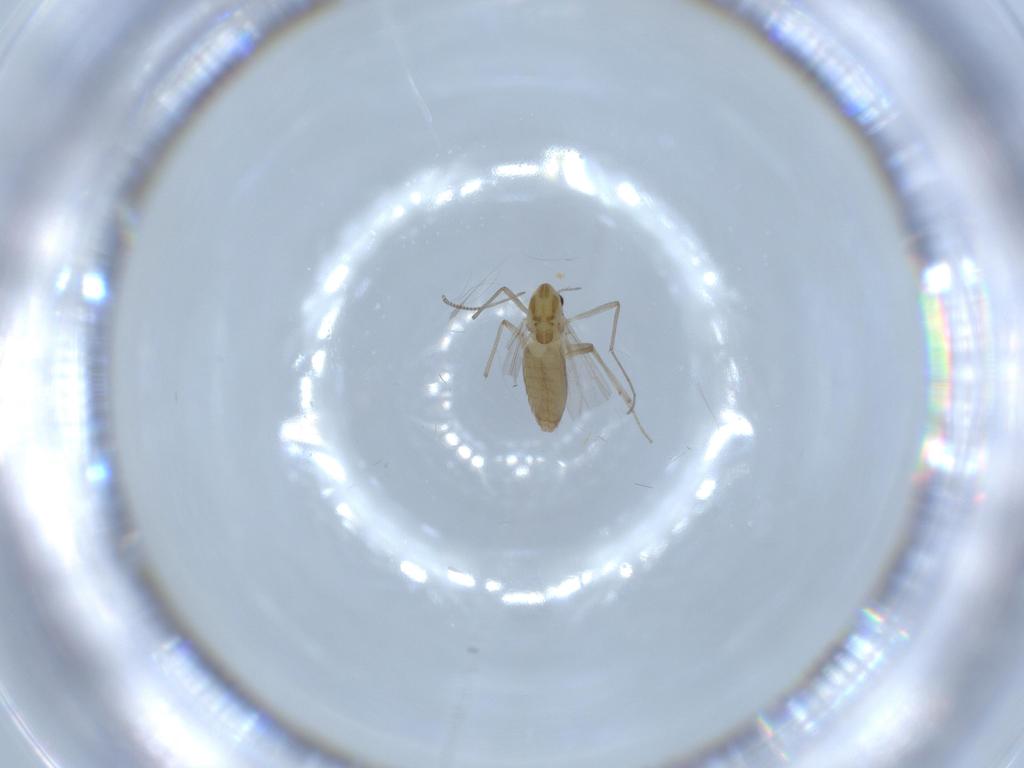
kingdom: Animalia
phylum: Arthropoda
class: Insecta
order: Diptera
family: Chironomidae
